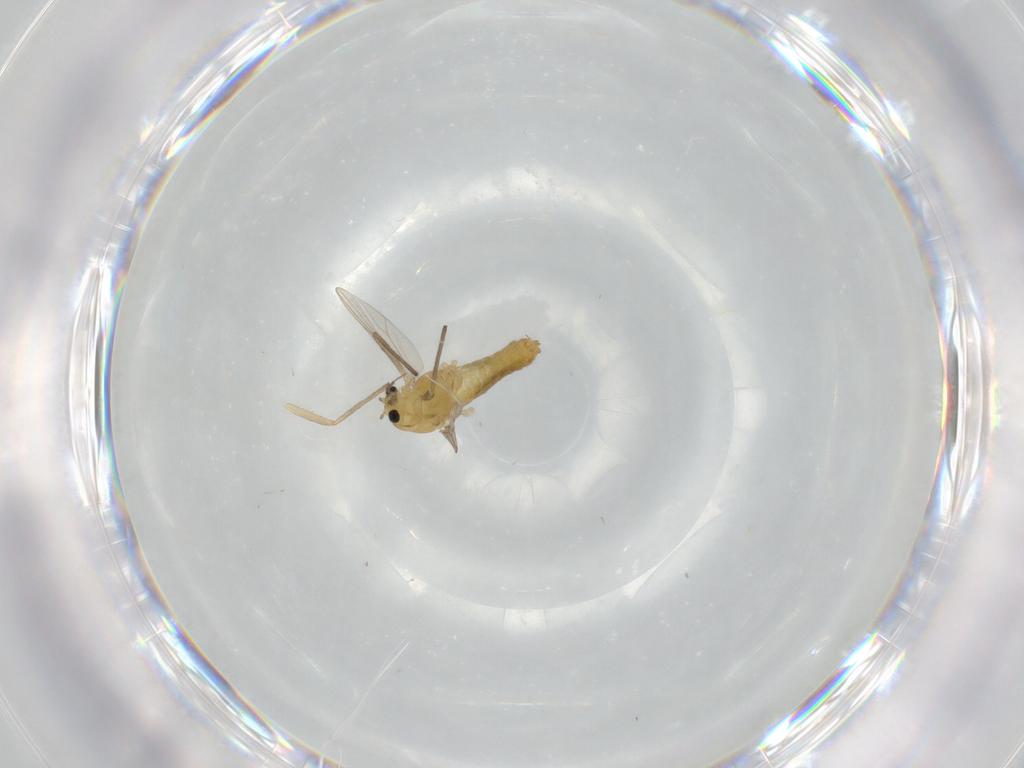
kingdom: Animalia
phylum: Arthropoda
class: Insecta
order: Diptera
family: Chironomidae
